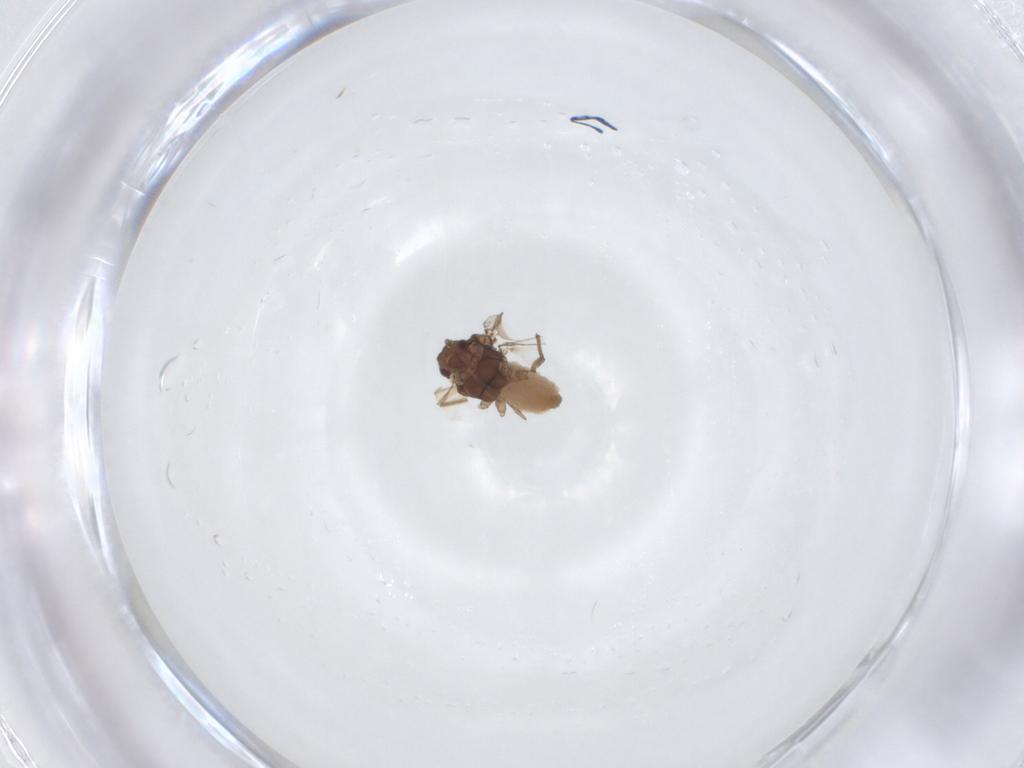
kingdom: Animalia
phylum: Arthropoda
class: Insecta
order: Hemiptera
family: Aphididae
